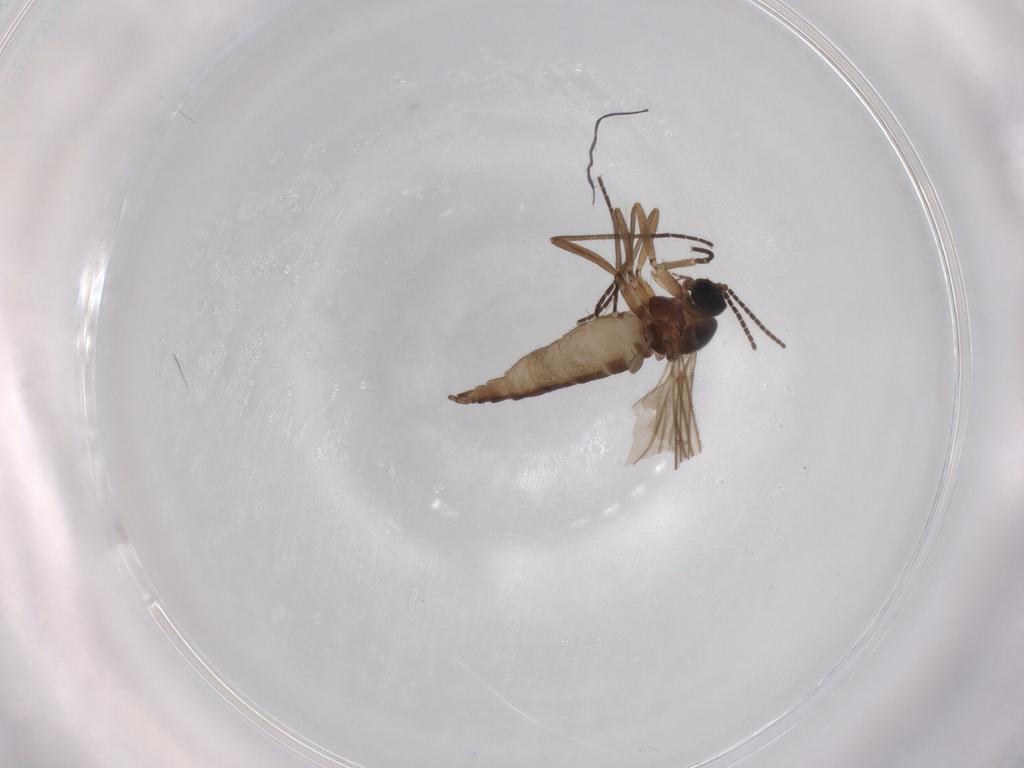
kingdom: Animalia
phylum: Arthropoda
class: Insecta
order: Diptera
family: Sciaridae
